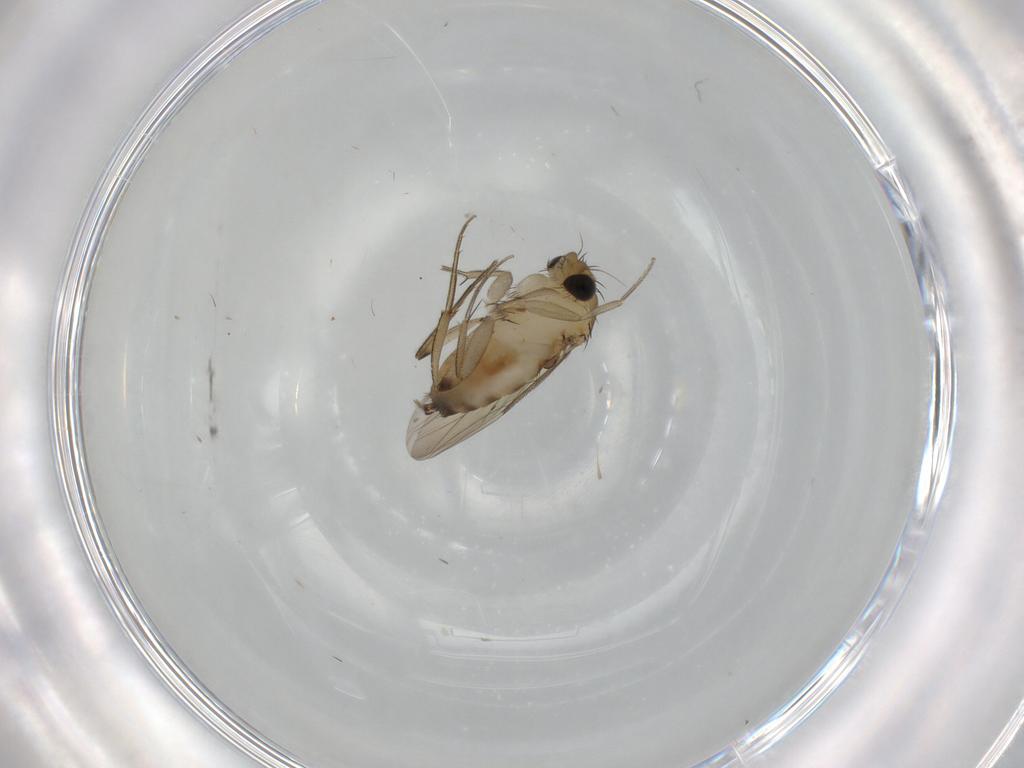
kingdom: Animalia
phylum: Arthropoda
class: Insecta
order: Diptera
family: Phoridae
